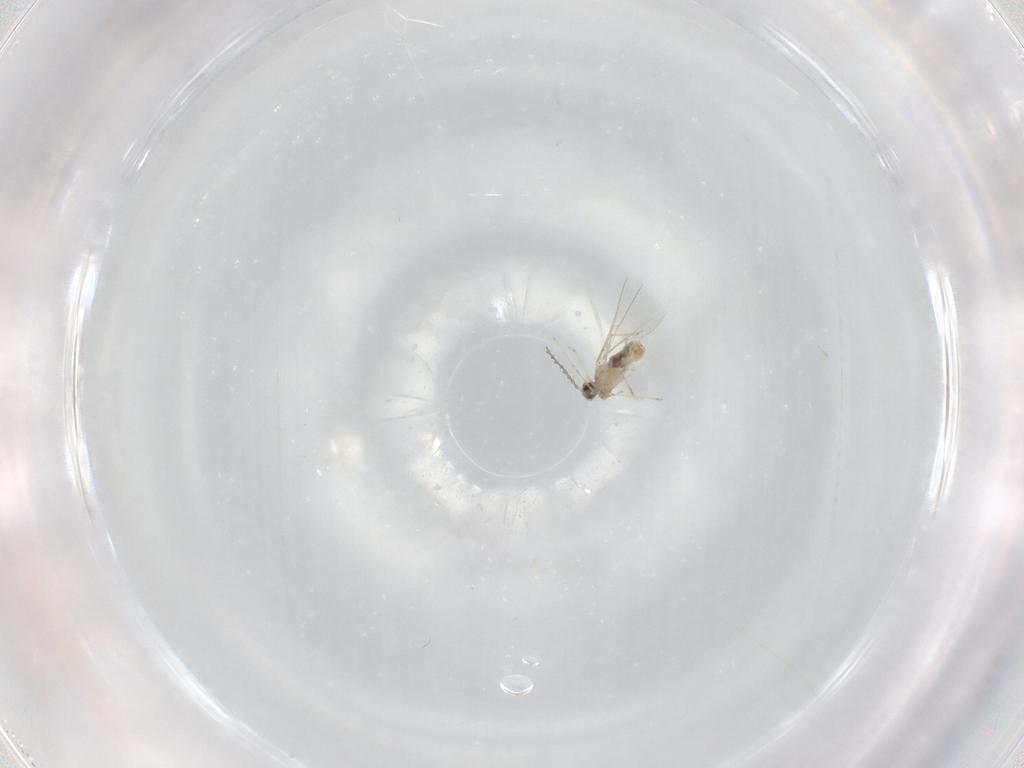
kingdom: Animalia
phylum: Arthropoda
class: Insecta
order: Diptera
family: Cecidomyiidae
